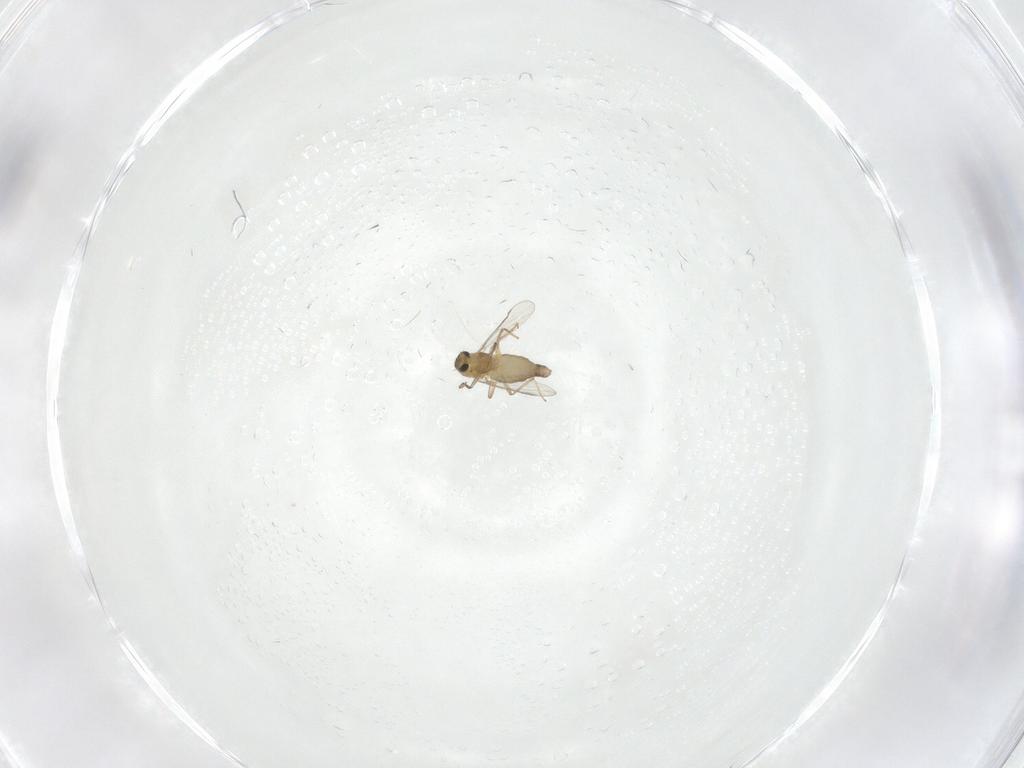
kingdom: Animalia
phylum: Arthropoda
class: Insecta
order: Diptera
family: Chironomidae
